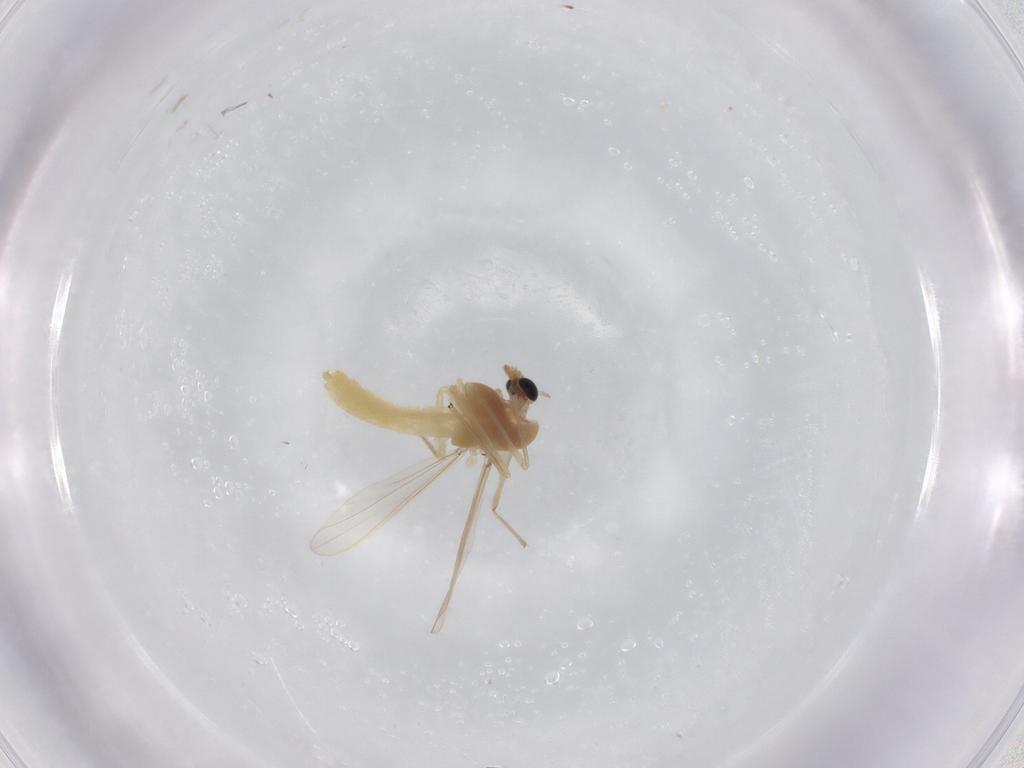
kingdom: Animalia
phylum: Arthropoda
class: Insecta
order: Diptera
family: Chironomidae
